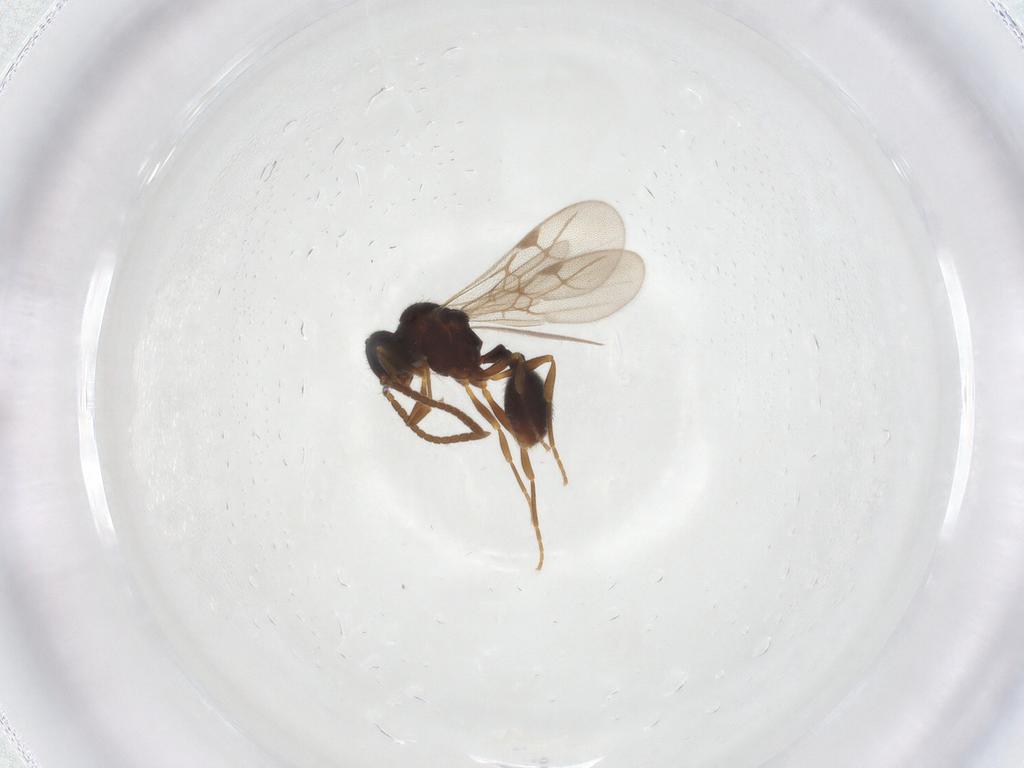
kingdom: Animalia
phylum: Arthropoda
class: Insecta
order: Hymenoptera
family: Formicidae
